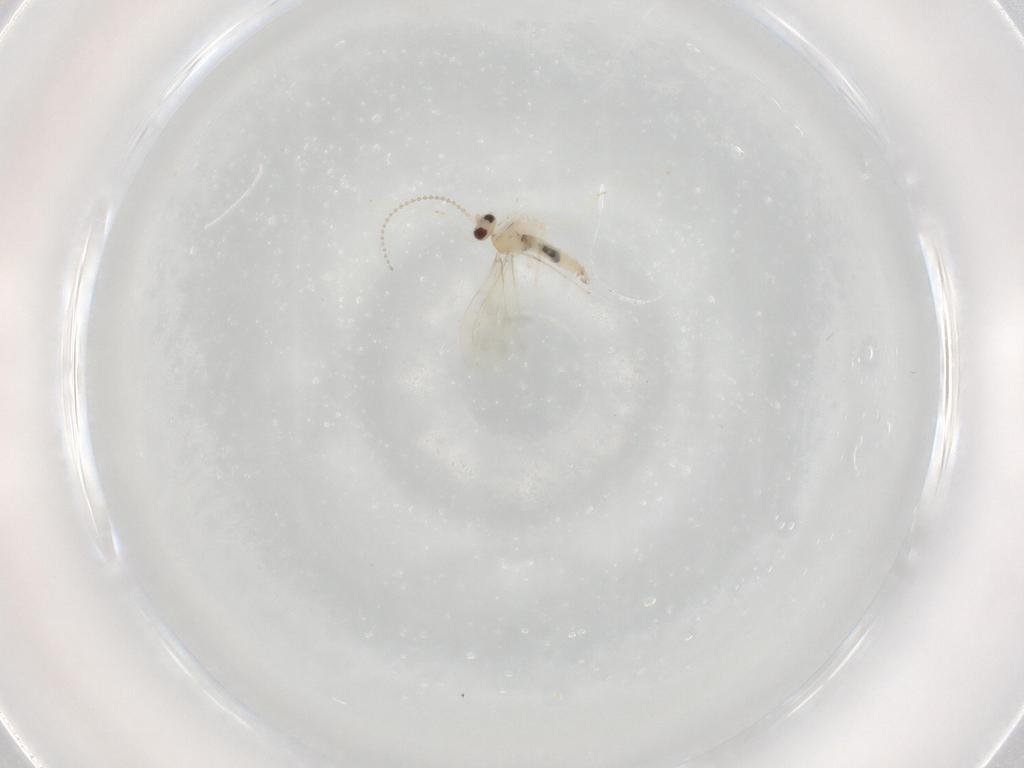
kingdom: Animalia
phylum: Arthropoda
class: Insecta
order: Diptera
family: Cecidomyiidae
